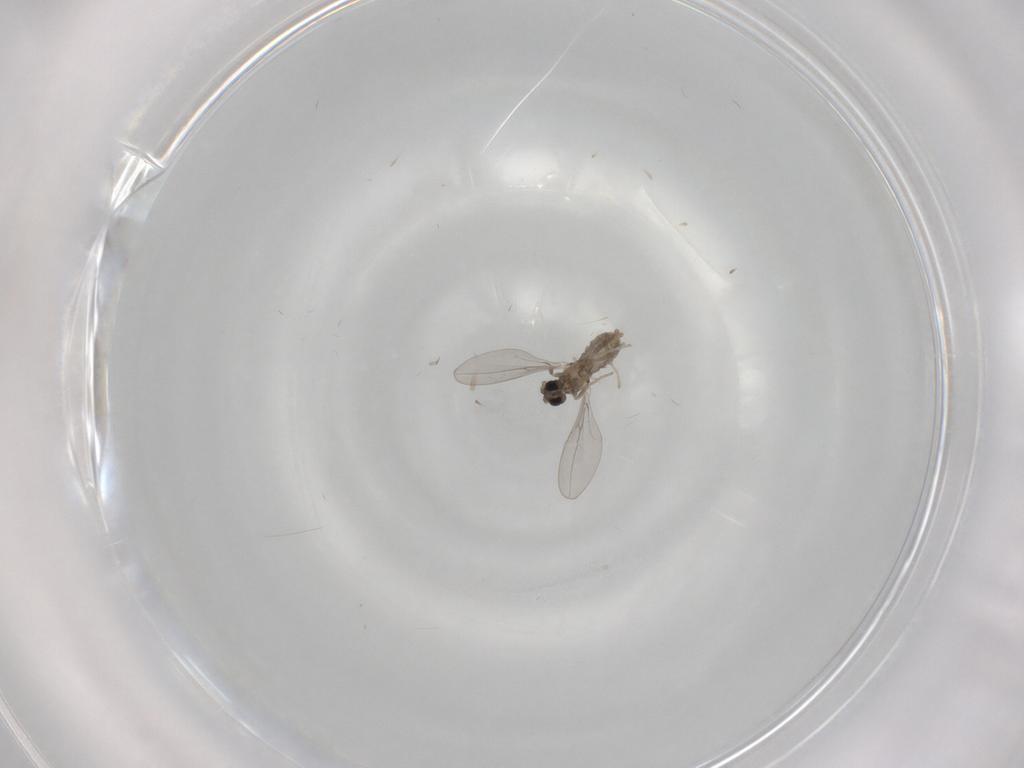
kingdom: Animalia
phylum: Arthropoda
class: Insecta
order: Diptera
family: Cecidomyiidae
